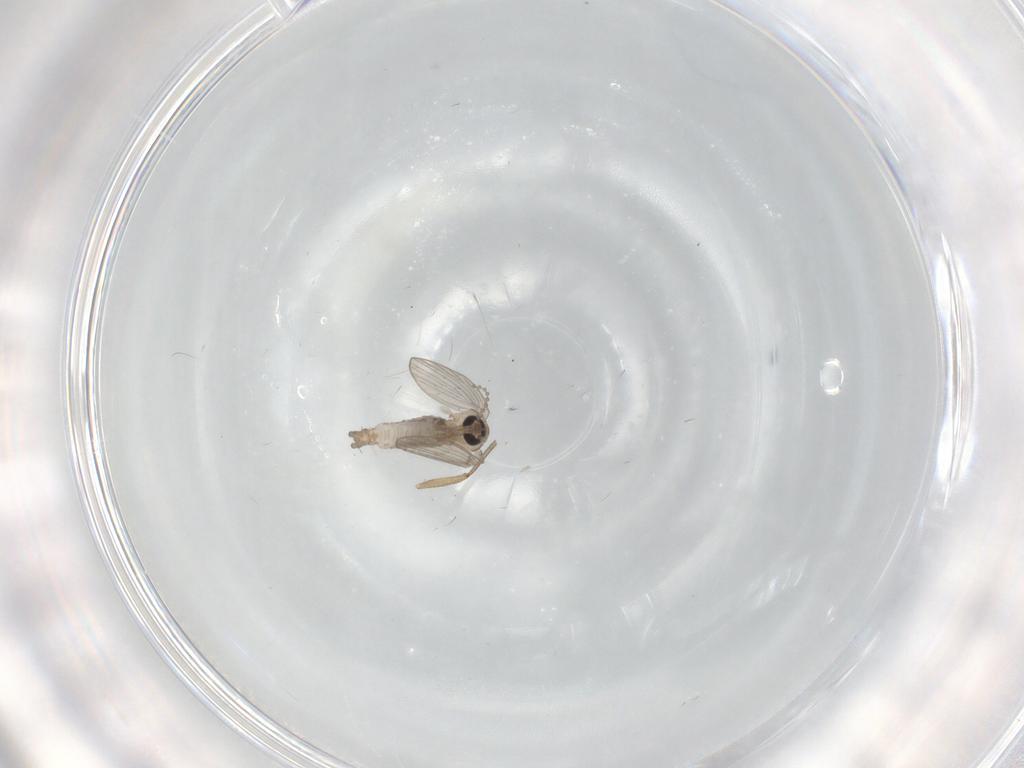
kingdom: Animalia
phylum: Arthropoda
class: Insecta
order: Diptera
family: Psychodidae
